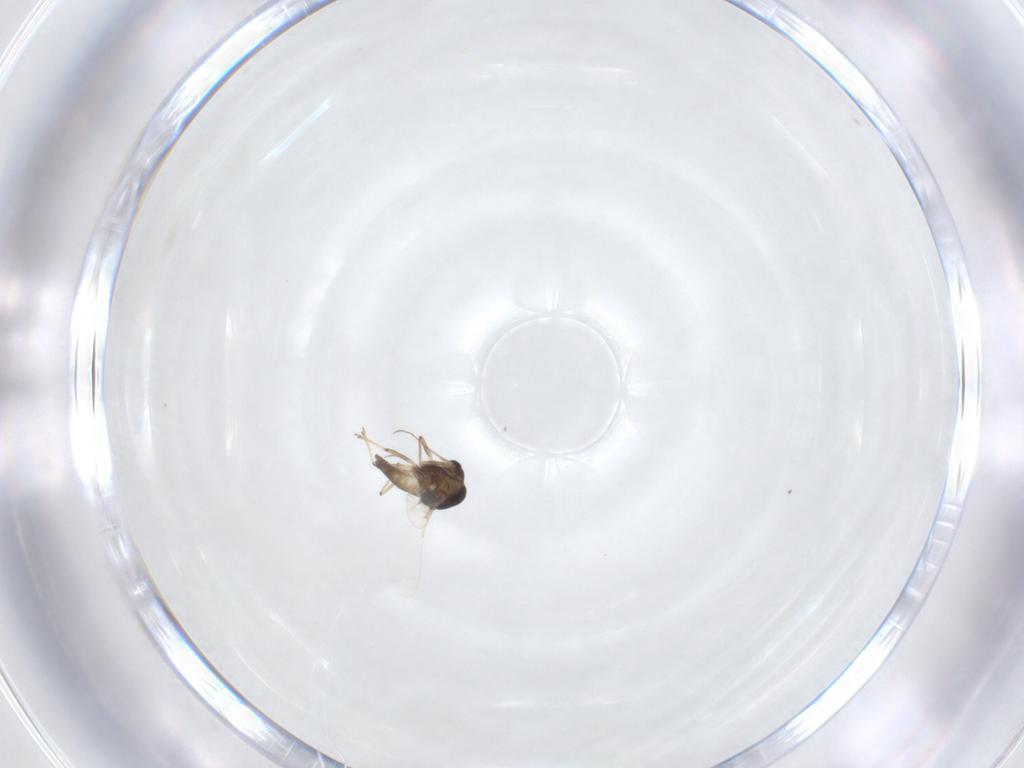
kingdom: Animalia
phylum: Arthropoda
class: Insecta
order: Diptera
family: Chironomidae
